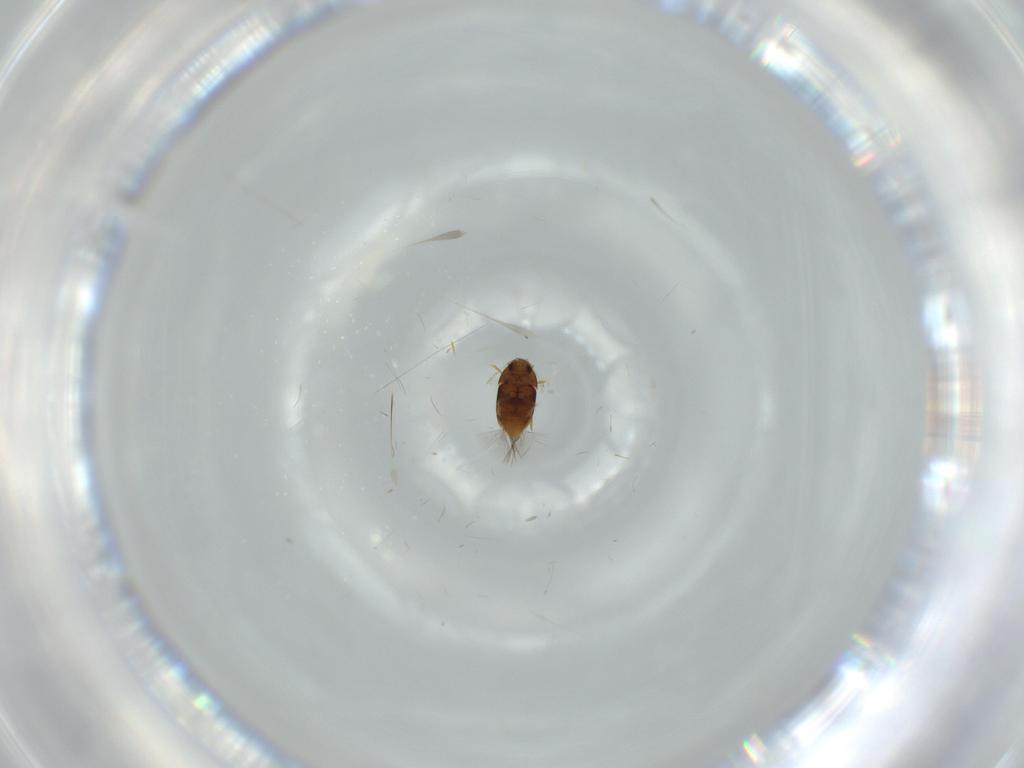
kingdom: Animalia
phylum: Arthropoda
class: Insecta
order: Coleoptera
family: Ptiliidae
